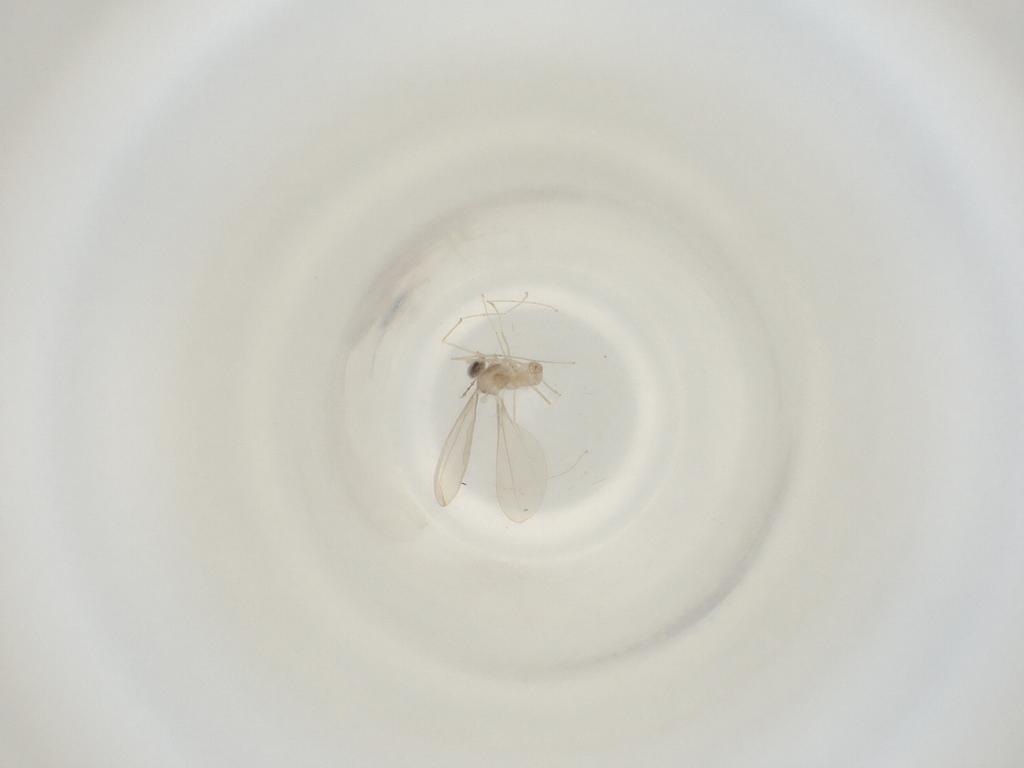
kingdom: Animalia
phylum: Arthropoda
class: Insecta
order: Diptera
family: Cecidomyiidae
